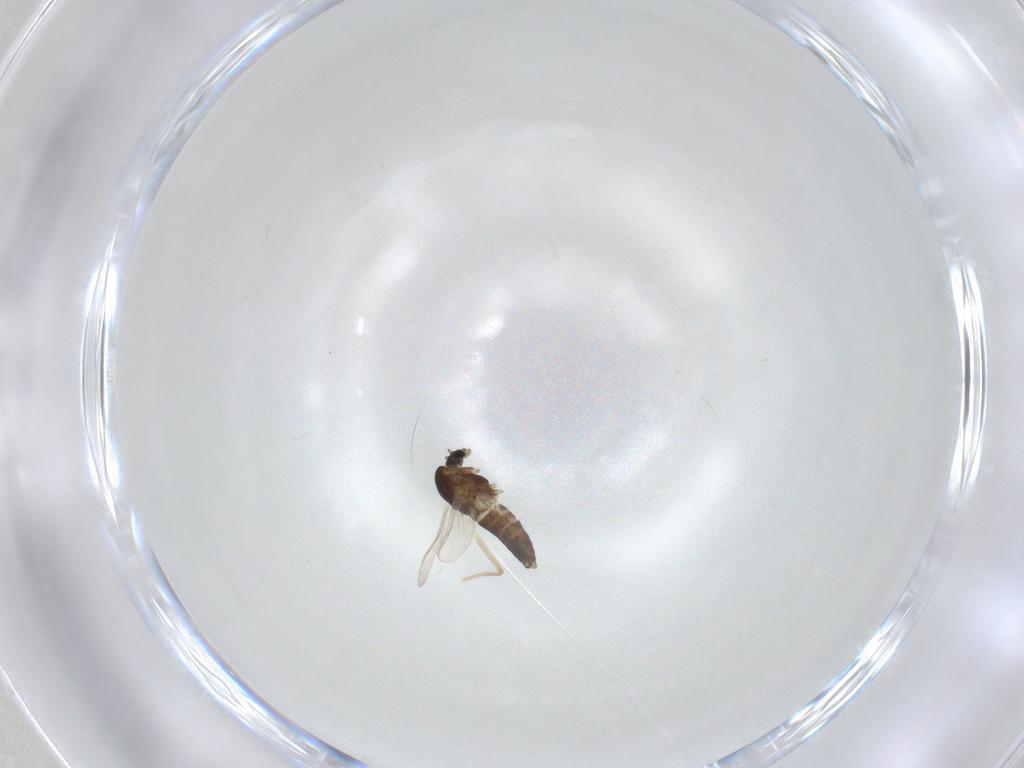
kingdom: Animalia
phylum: Arthropoda
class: Insecta
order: Diptera
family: Chironomidae
